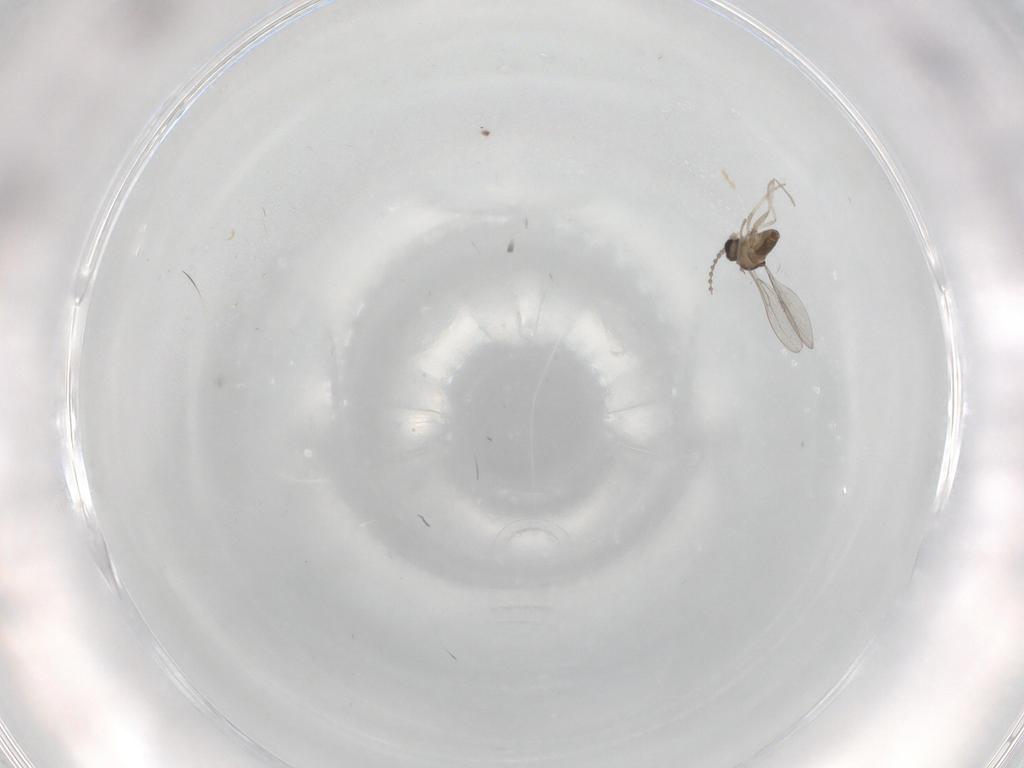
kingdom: Animalia
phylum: Arthropoda
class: Insecta
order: Diptera
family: Cecidomyiidae
